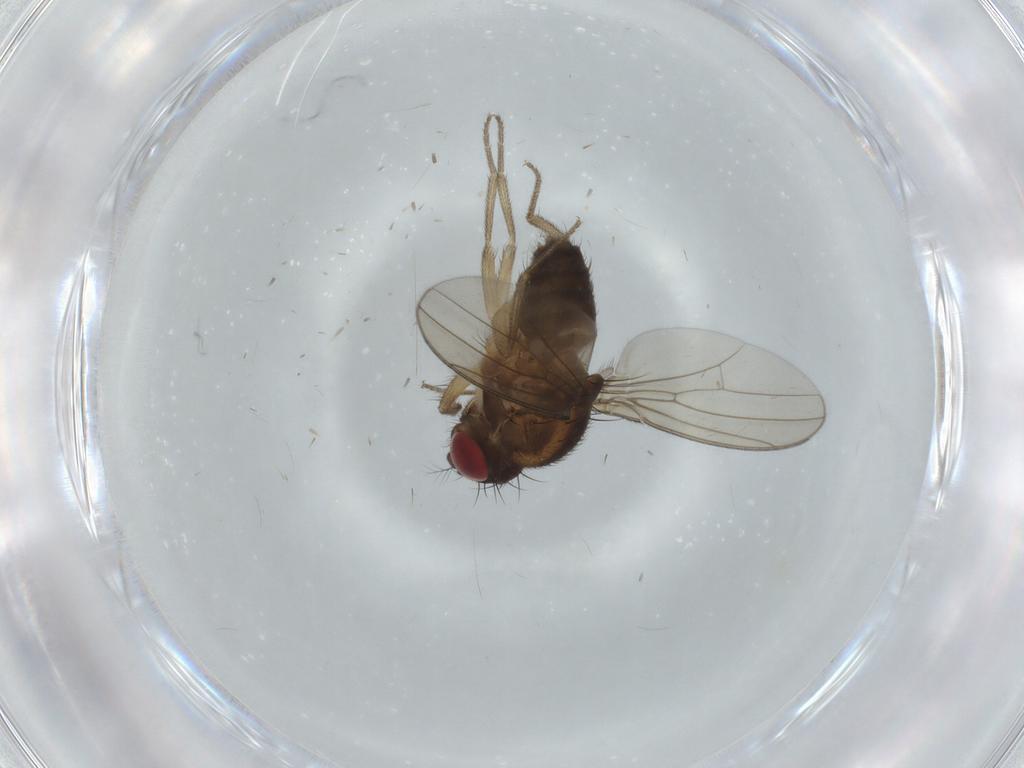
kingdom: Animalia
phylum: Arthropoda
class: Insecta
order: Diptera
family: Drosophilidae
